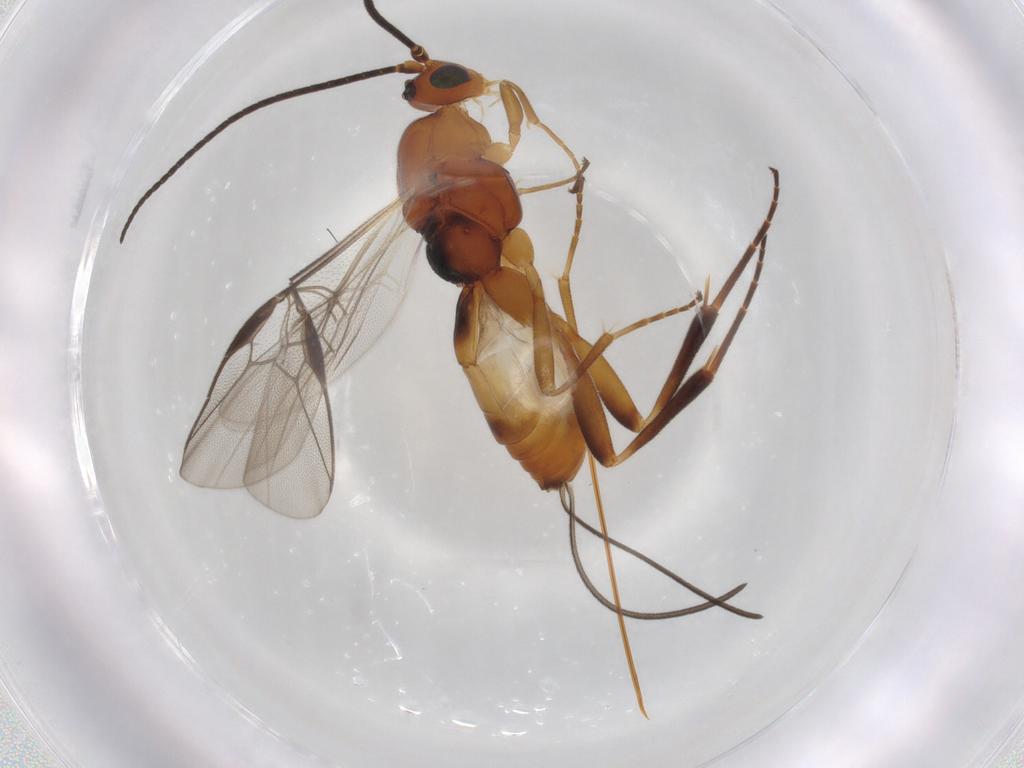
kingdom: Animalia
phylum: Arthropoda
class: Insecta
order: Hymenoptera
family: Braconidae
